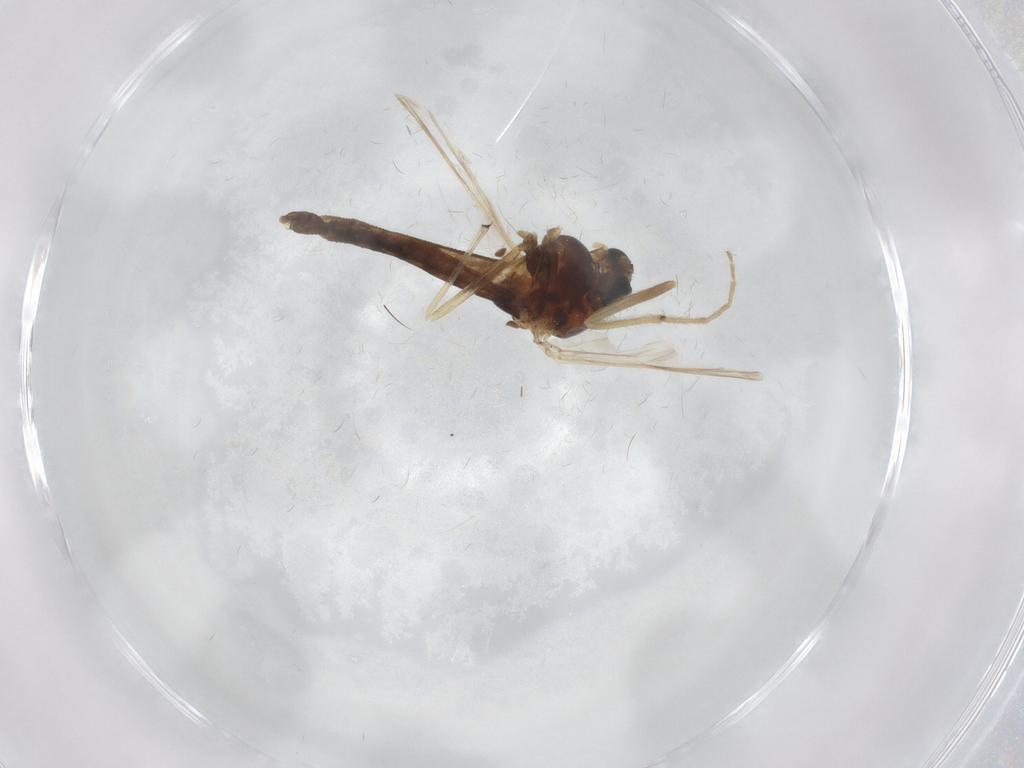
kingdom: Animalia
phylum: Arthropoda
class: Insecta
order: Diptera
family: Chironomidae
